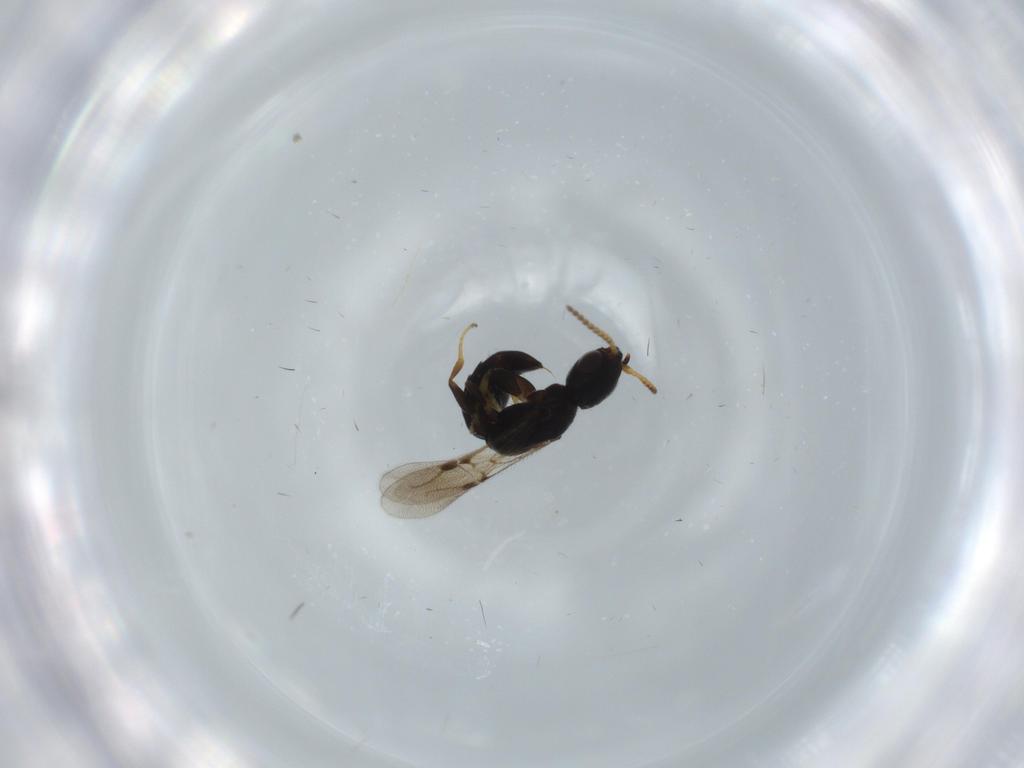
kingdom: Animalia
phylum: Arthropoda
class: Insecta
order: Hymenoptera
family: Bethylidae
